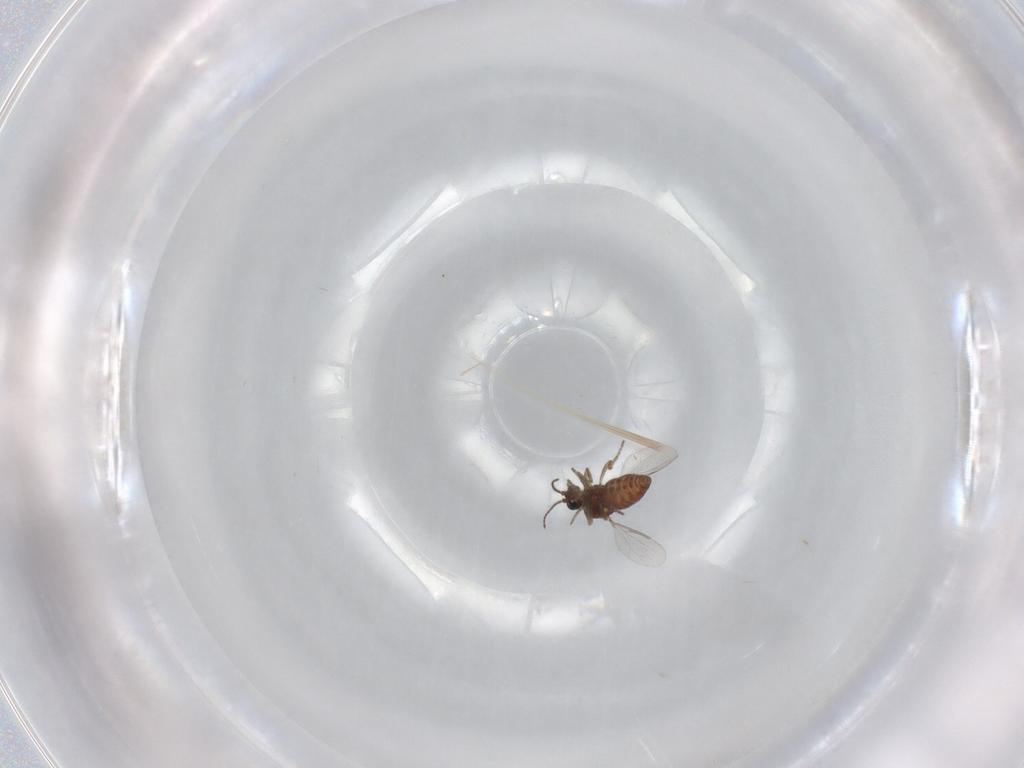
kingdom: Animalia
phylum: Arthropoda
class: Insecta
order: Diptera
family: Ceratopogonidae
